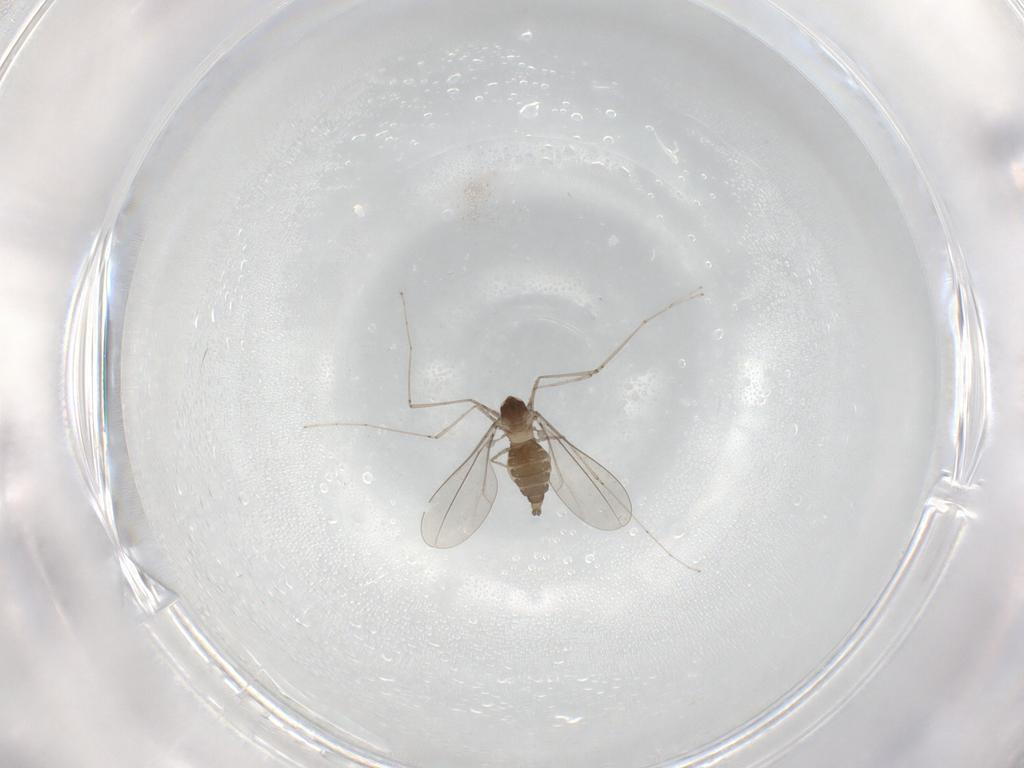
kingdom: Animalia
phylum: Arthropoda
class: Insecta
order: Diptera
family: Cecidomyiidae
